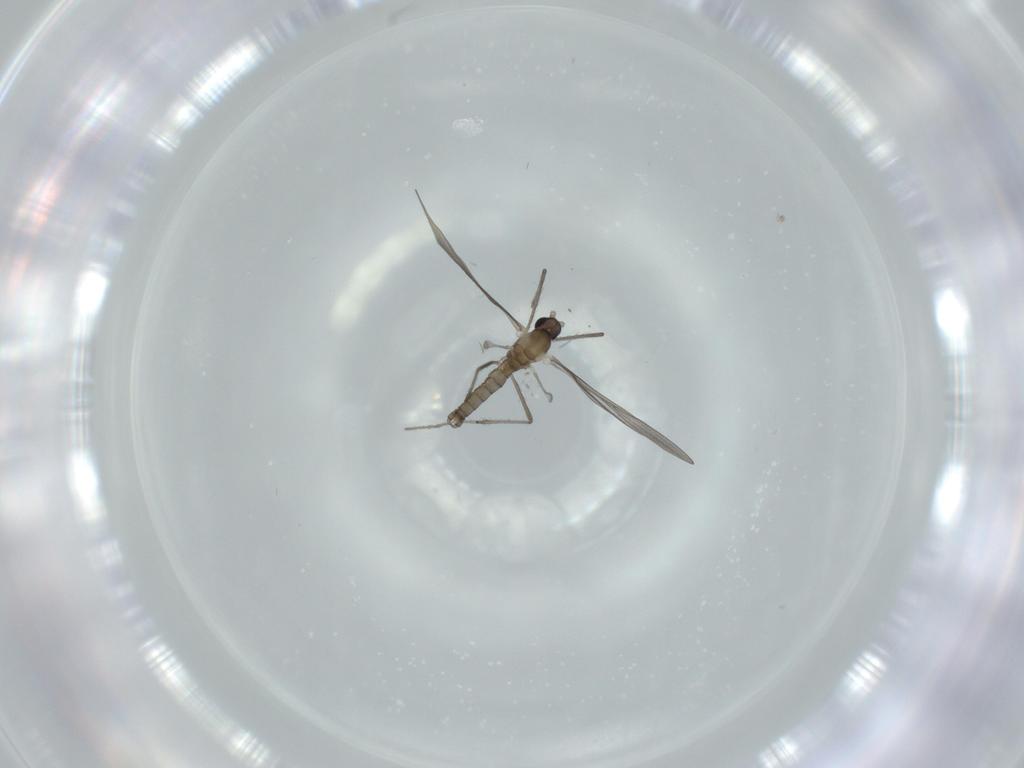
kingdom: Animalia
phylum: Arthropoda
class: Insecta
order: Diptera
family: Cecidomyiidae
